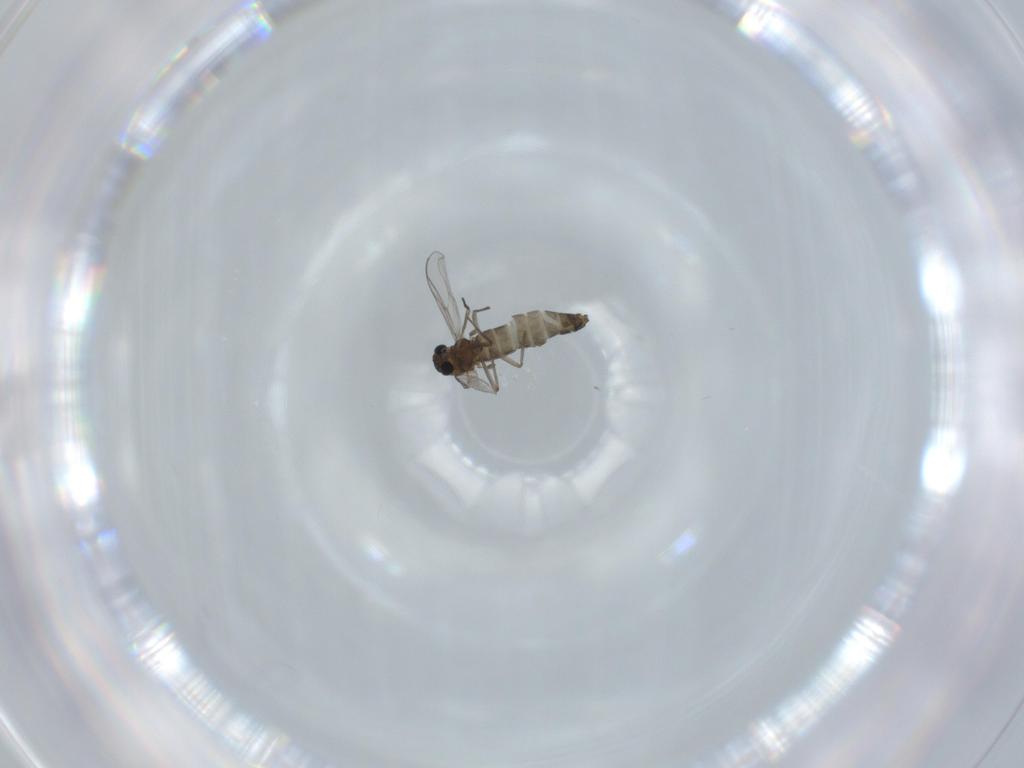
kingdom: Animalia
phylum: Arthropoda
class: Insecta
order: Diptera
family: Chironomidae
